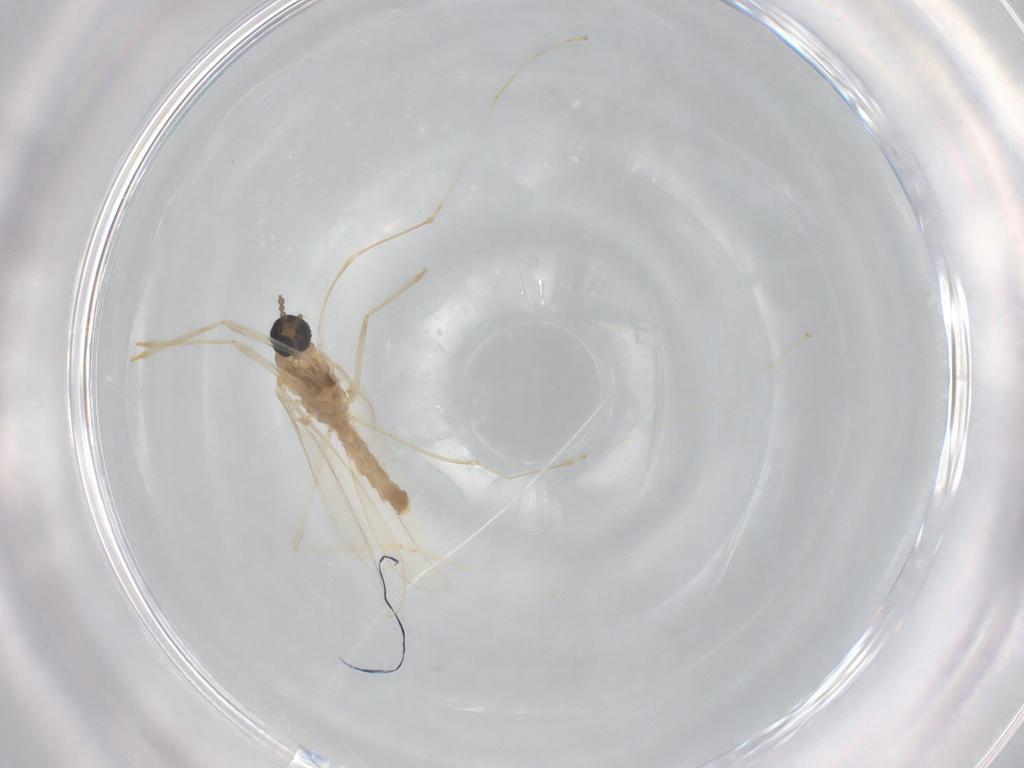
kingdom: Animalia
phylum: Arthropoda
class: Insecta
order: Diptera
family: Cecidomyiidae
